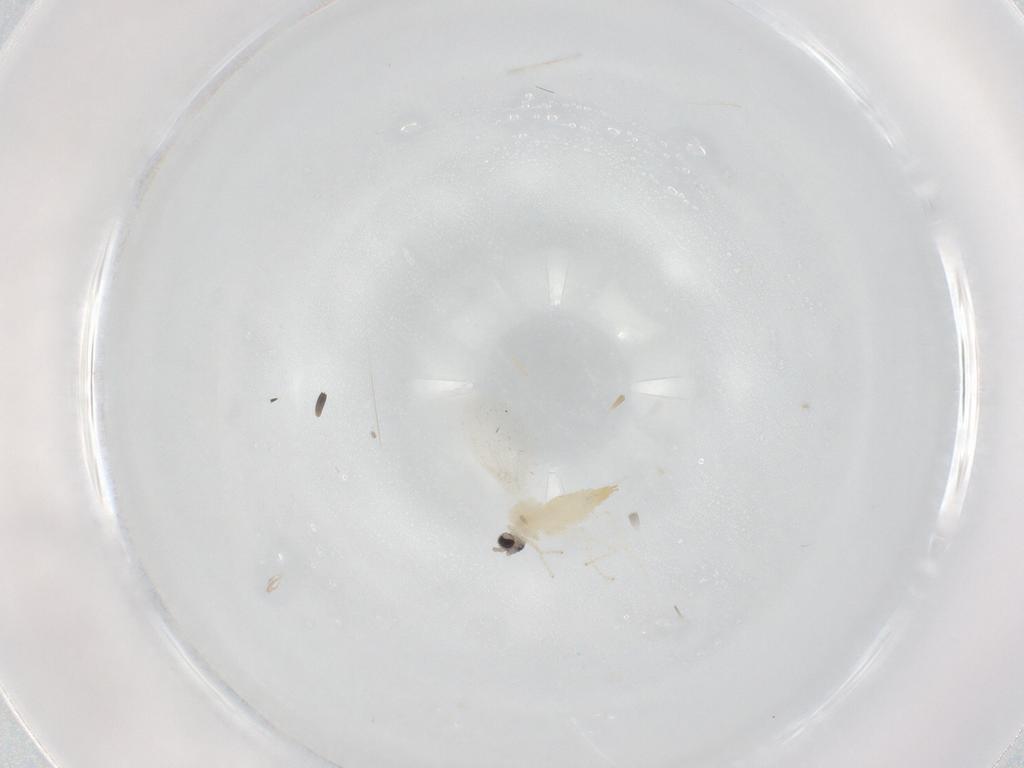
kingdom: Animalia
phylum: Arthropoda
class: Insecta
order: Diptera
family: Cecidomyiidae
